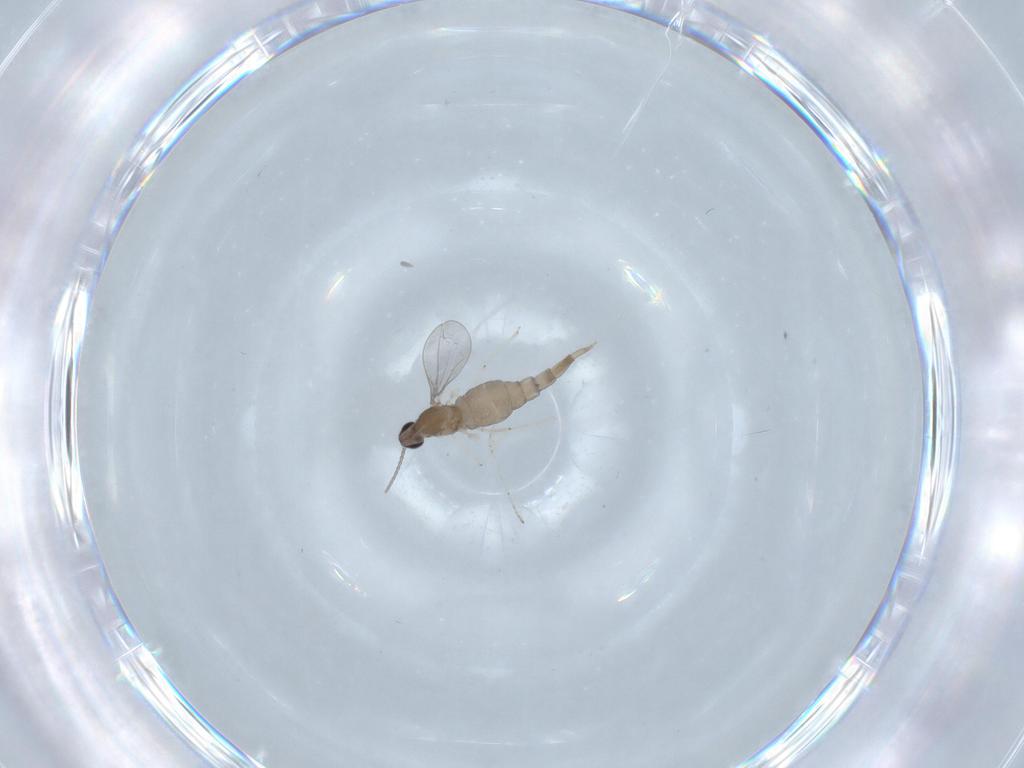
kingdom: Animalia
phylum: Arthropoda
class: Insecta
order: Diptera
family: Cecidomyiidae
